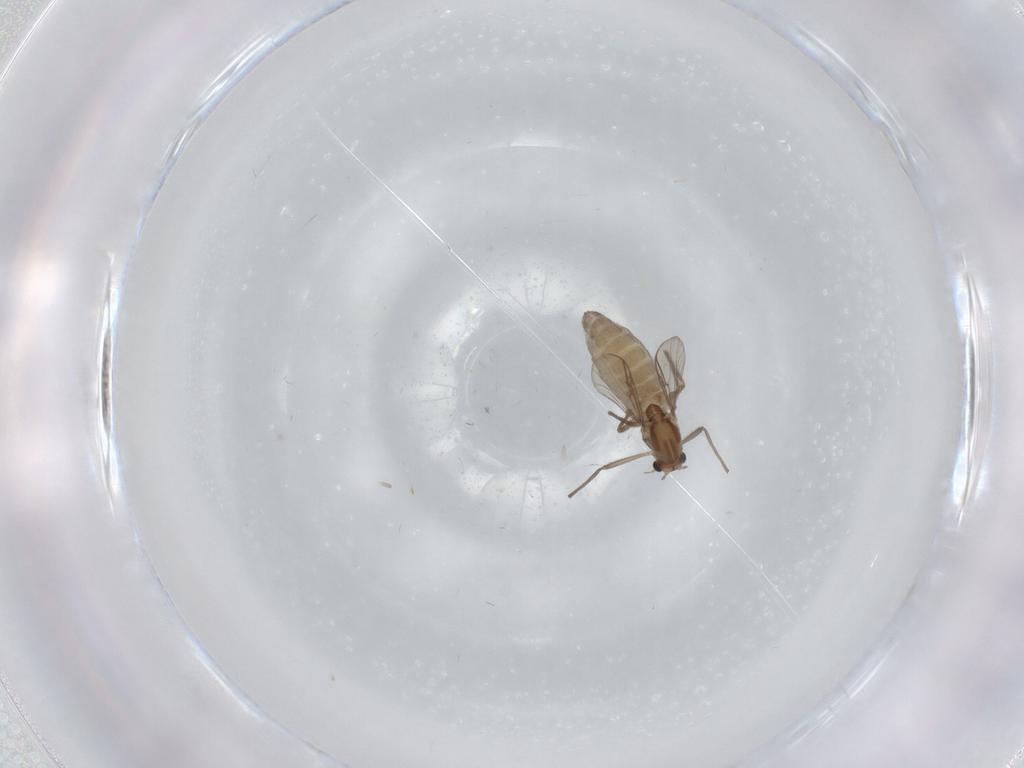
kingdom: Animalia
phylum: Arthropoda
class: Insecta
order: Diptera
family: Chironomidae
